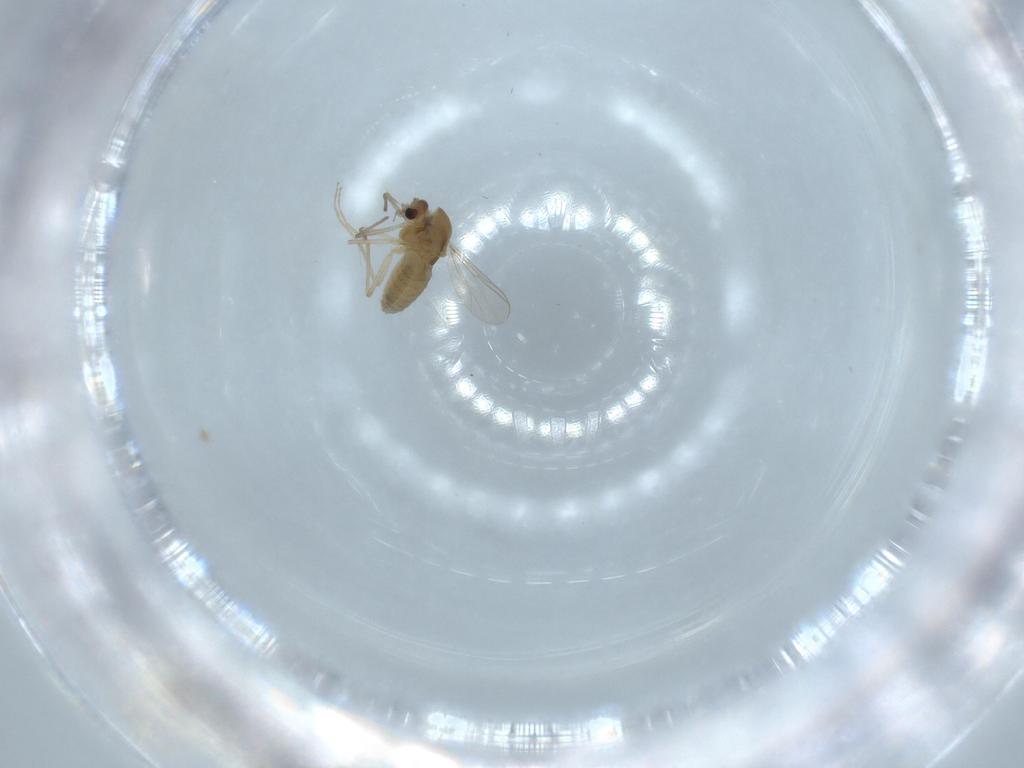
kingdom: Animalia
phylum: Arthropoda
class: Insecta
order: Diptera
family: Chironomidae
